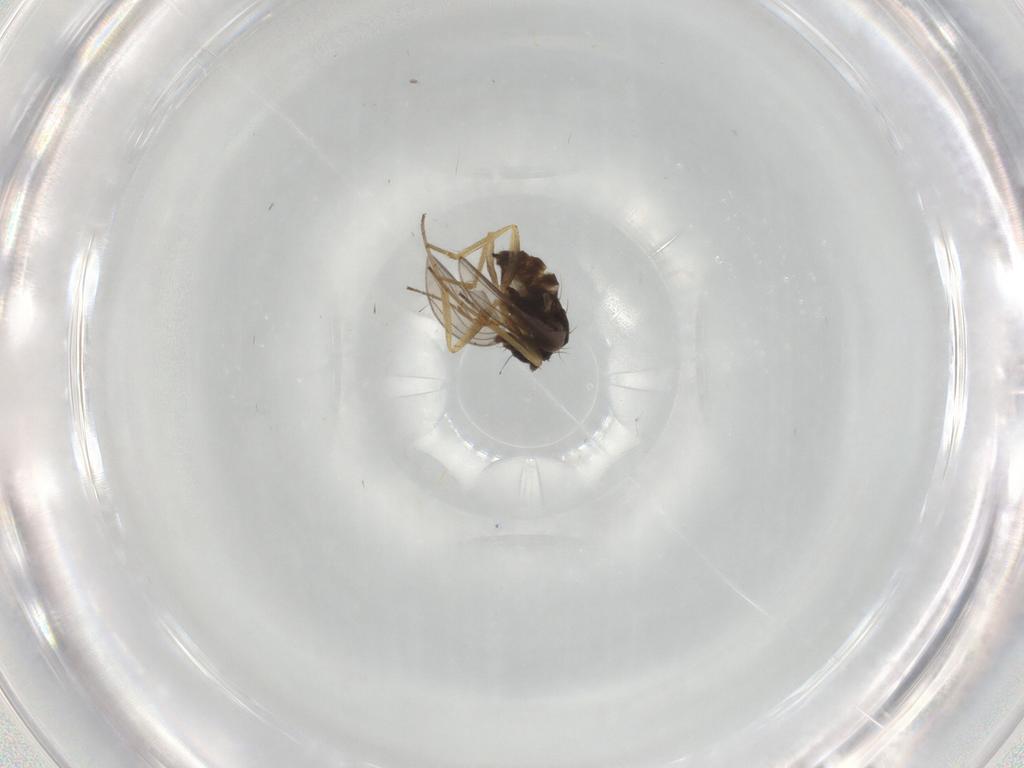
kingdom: Animalia
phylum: Arthropoda
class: Insecta
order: Diptera
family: Dolichopodidae
